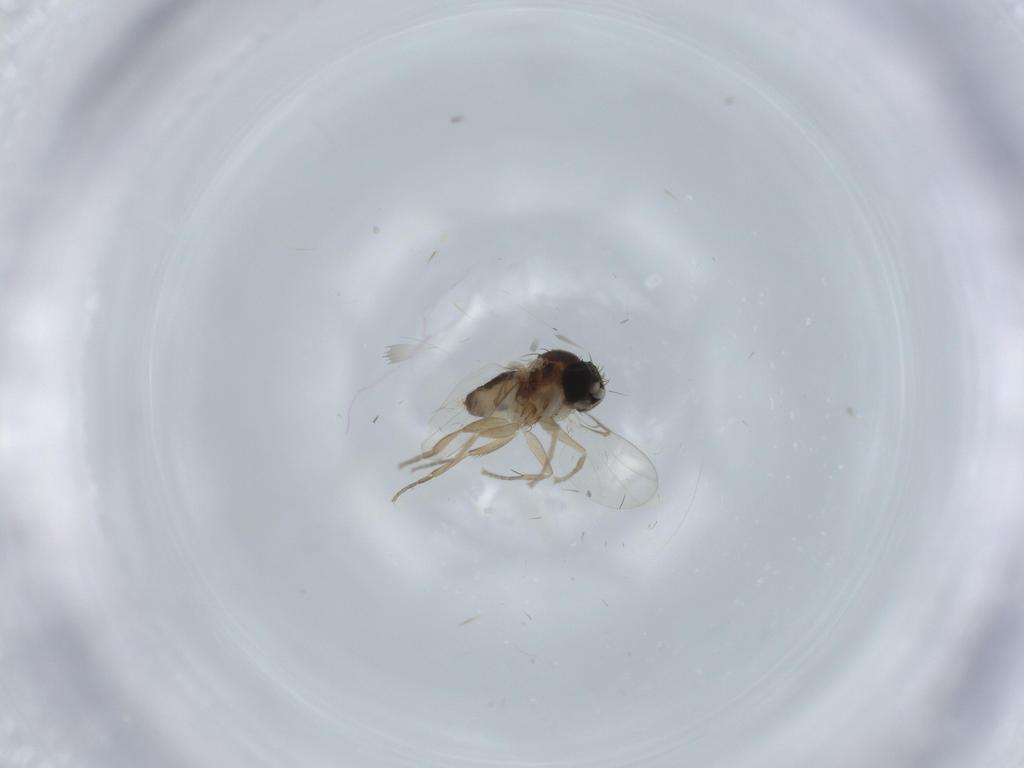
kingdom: Animalia
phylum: Arthropoda
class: Insecta
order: Diptera
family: Phoridae
